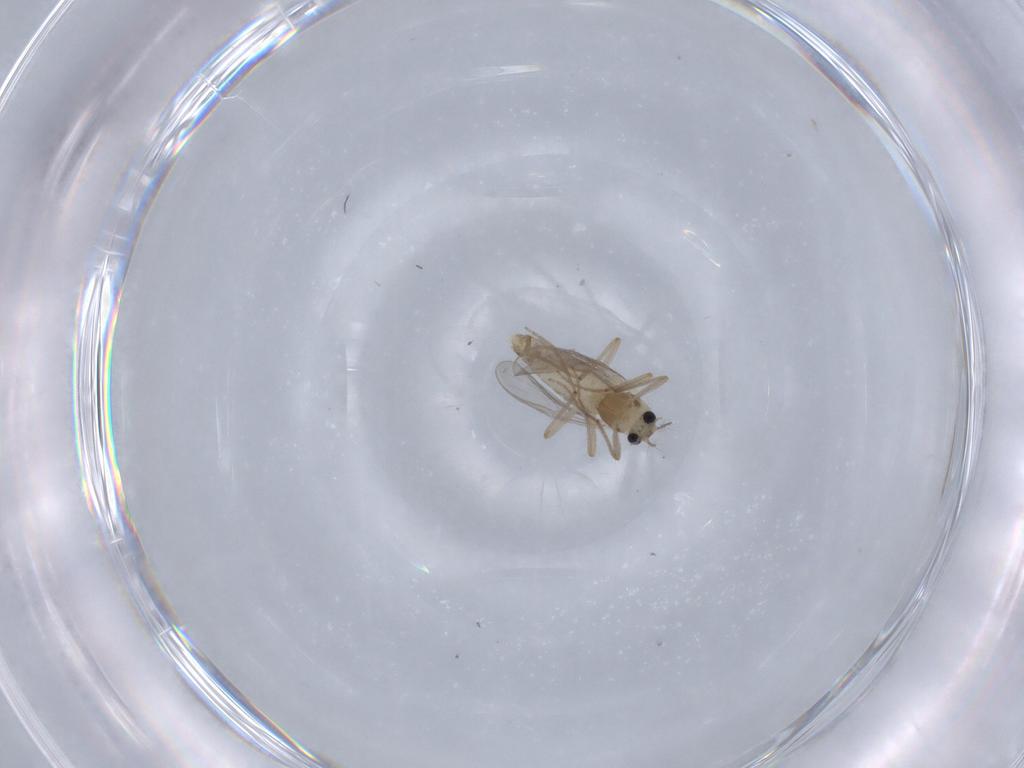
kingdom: Animalia
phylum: Arthropoda
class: Insecta
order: Diptera
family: Chironomidae
